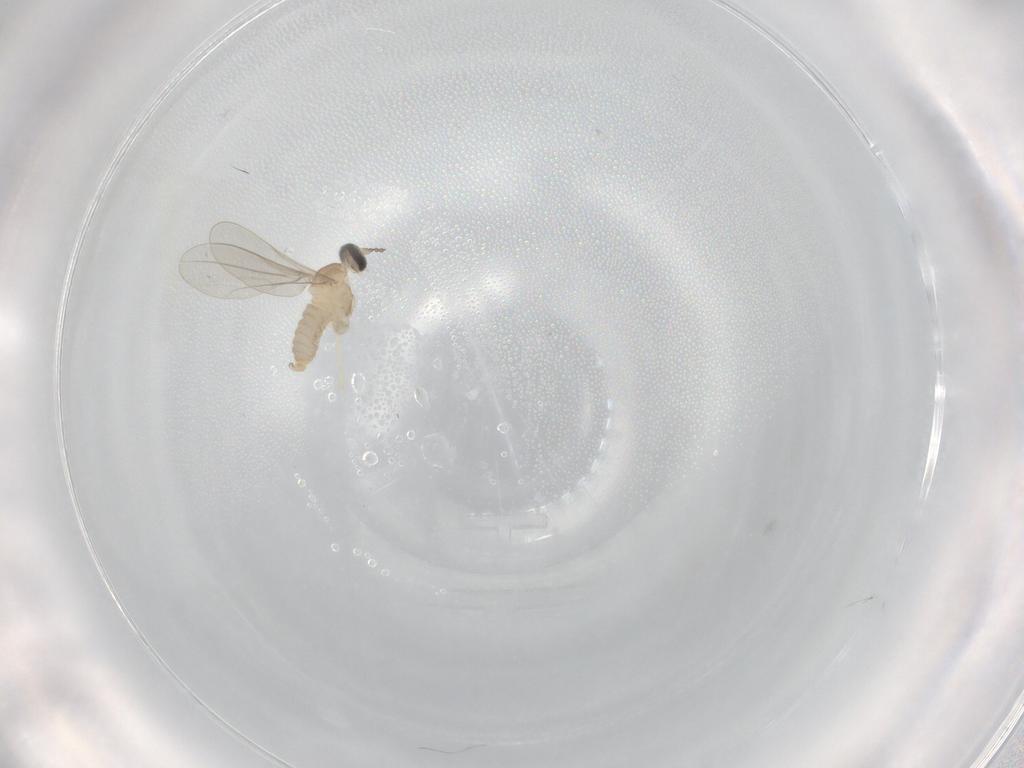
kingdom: Animalia
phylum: Arthropoda
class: Insecta
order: Diptera
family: Cecidomyiidae
